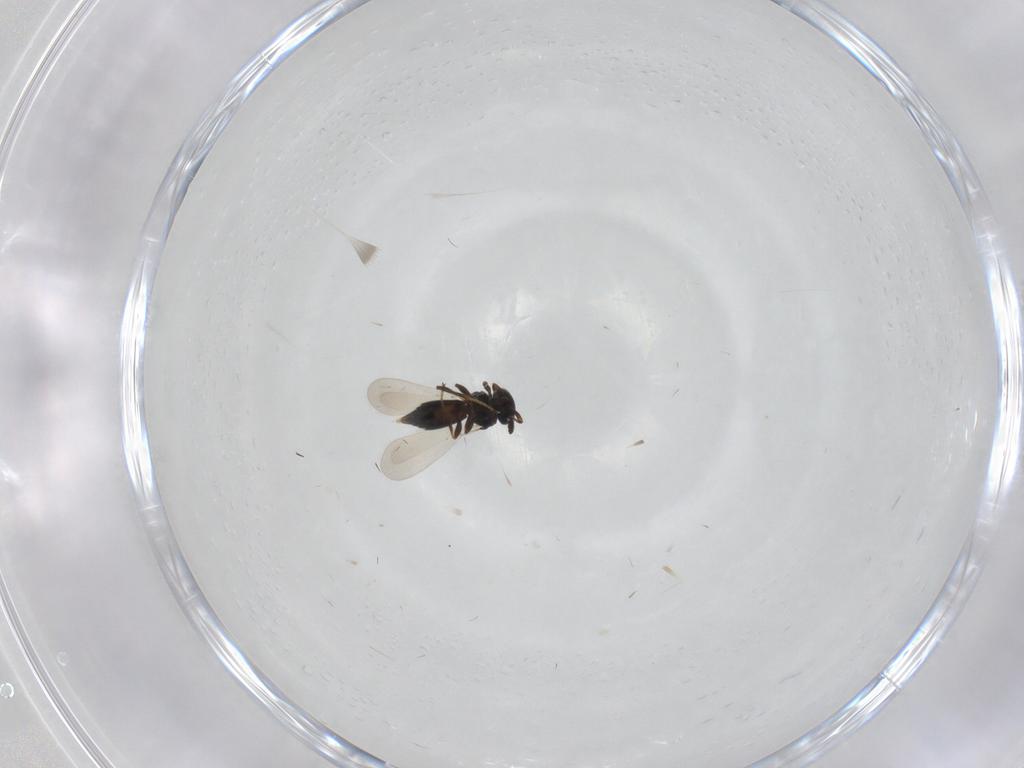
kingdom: Animalia
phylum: Arthropoda
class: Insecta
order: Hymenoptera
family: Platygastridae
